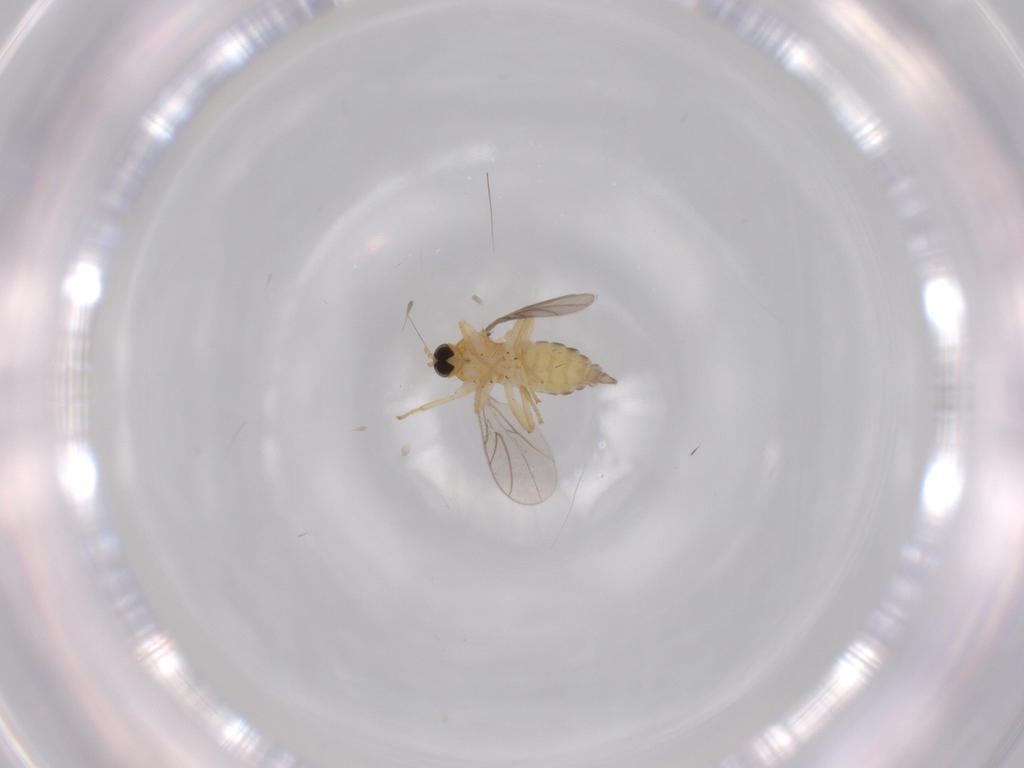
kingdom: Animalia
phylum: Arthropoda
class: Insecta
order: Diptera
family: Hybotidae
